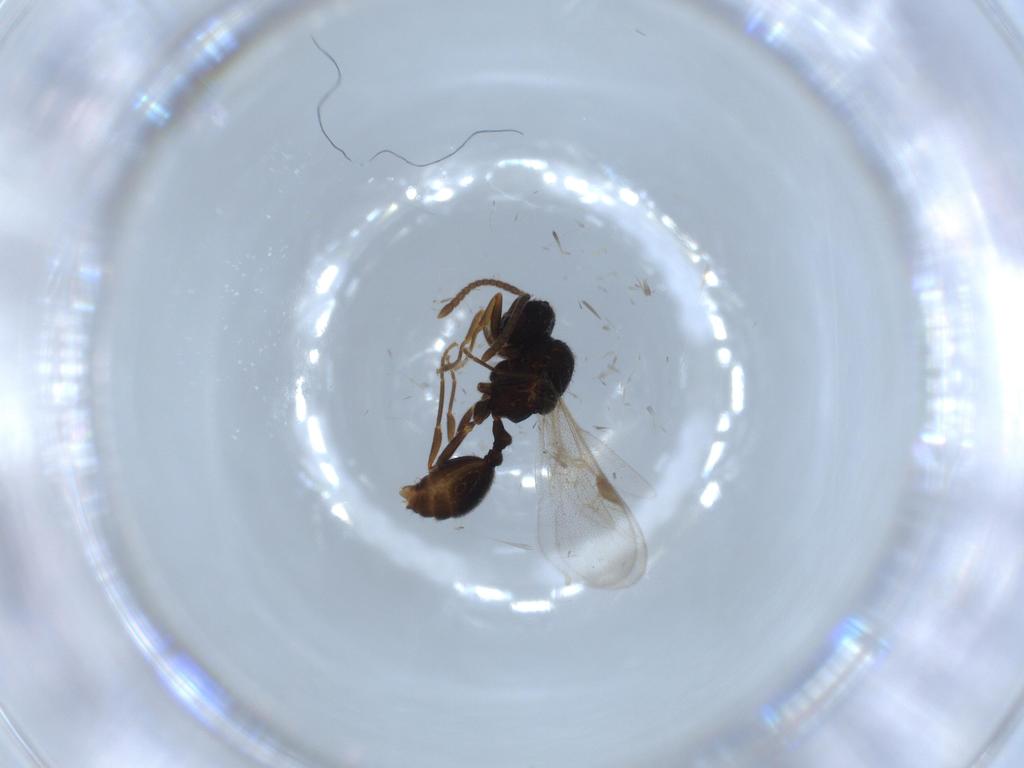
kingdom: Animalia
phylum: Arthropoda
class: Insecta
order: Hymenoptera
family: Formicidae
